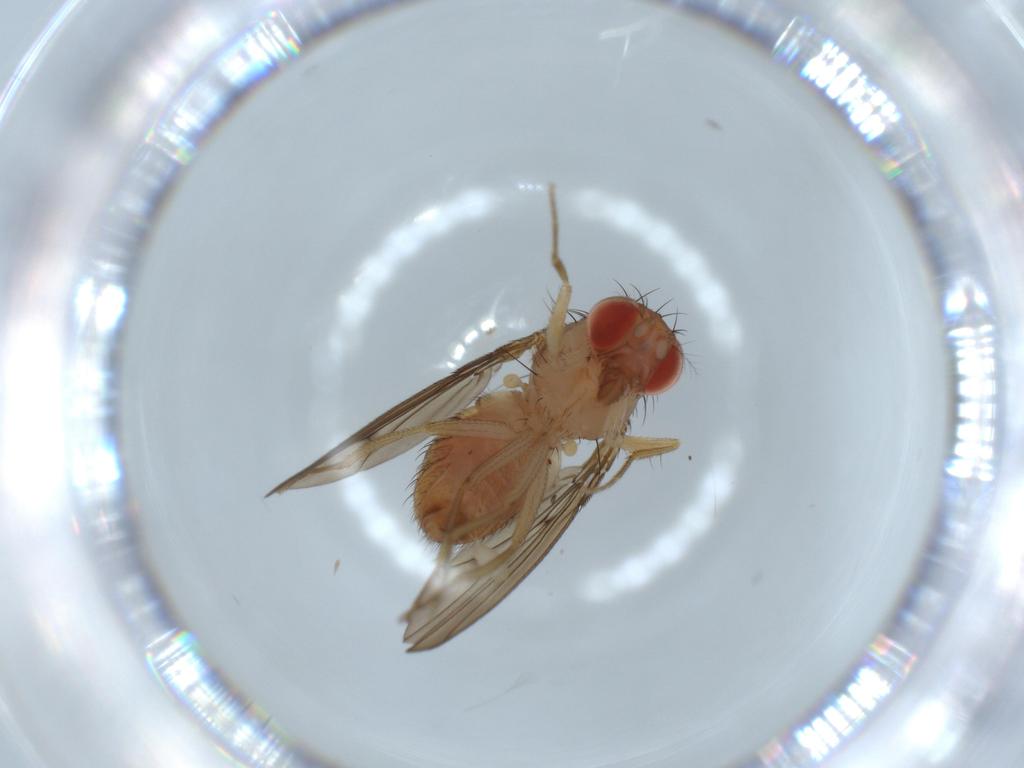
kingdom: Animalia
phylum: Arthropoda
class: Insecta
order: Diptera
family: Drosophilidae
